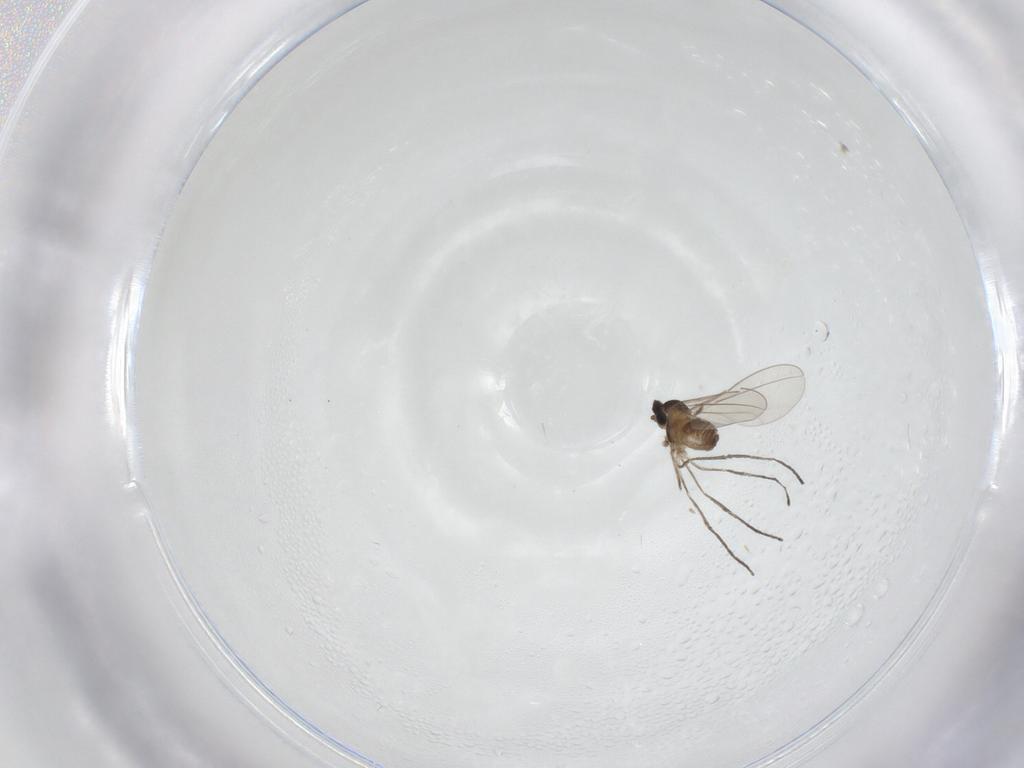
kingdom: Animalia
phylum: Arthropoda
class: Insecta
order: Diptera
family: Cecidomyiidae
